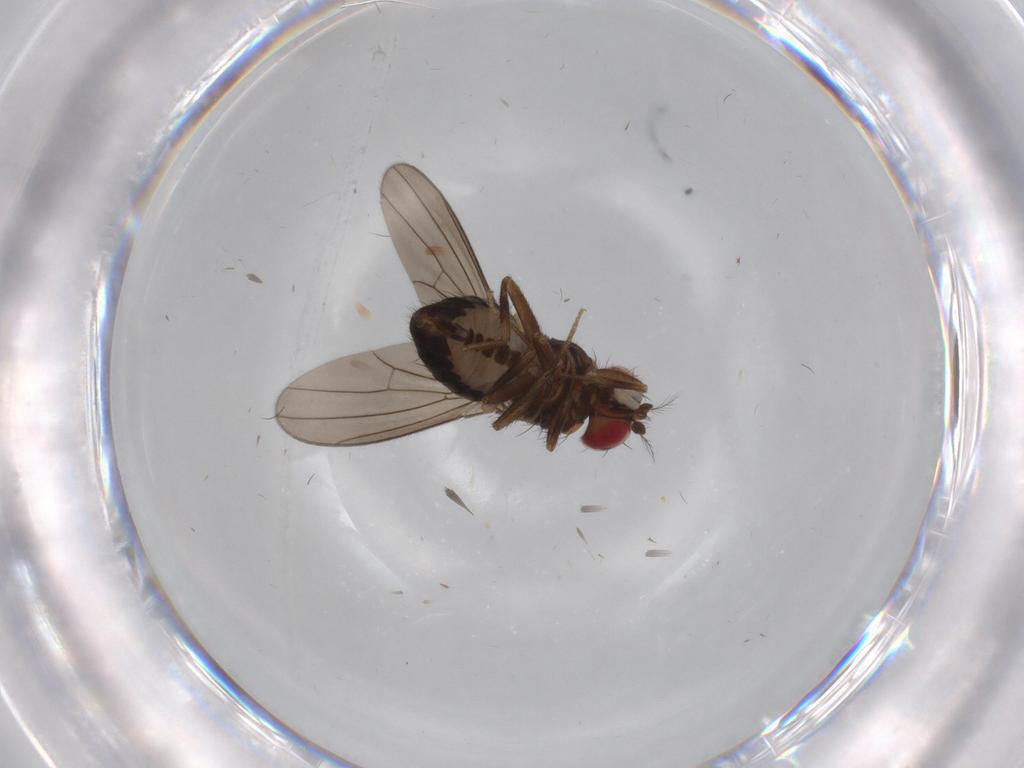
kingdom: Animalia
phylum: Arthropoda
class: Insecta
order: Diptera
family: Drosophilidae
